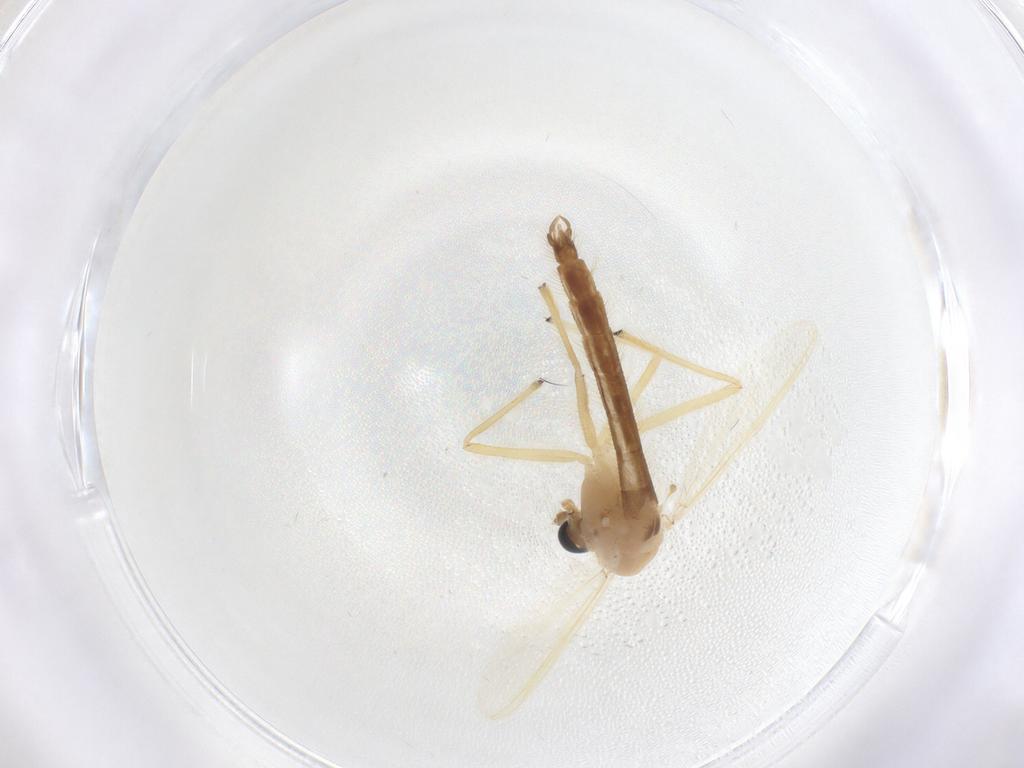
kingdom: Animalia
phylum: Arthropoda
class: Insecta
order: Diptera
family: Chironomidae
